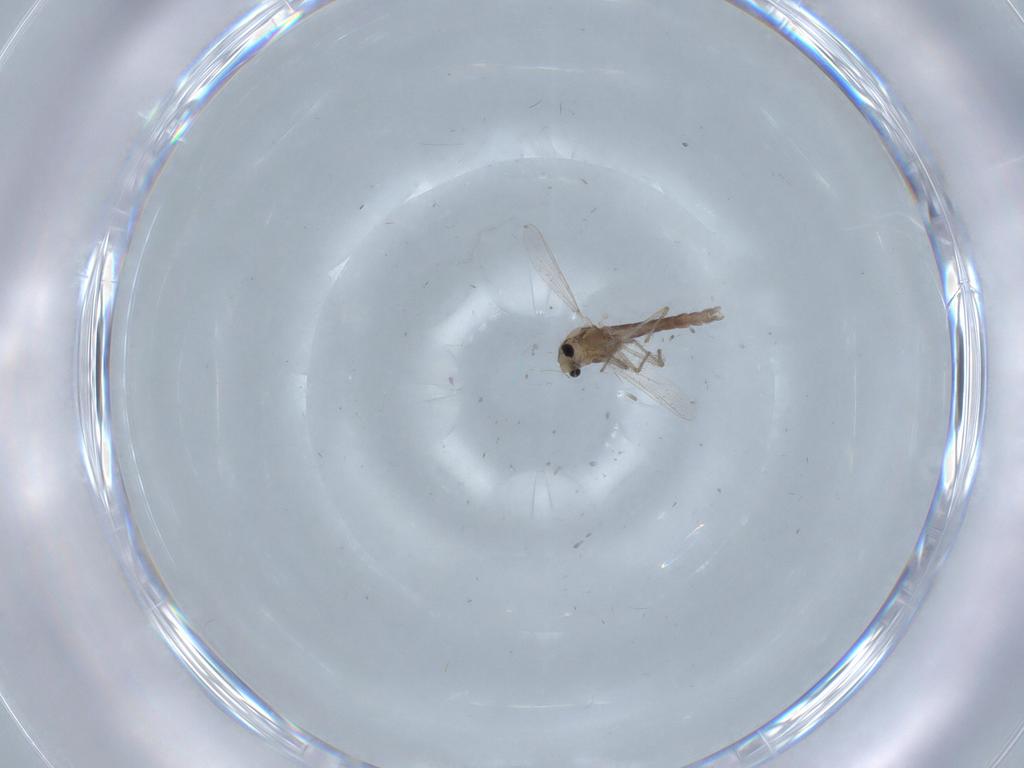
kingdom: Animalia
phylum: Arthropoda
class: Insecta
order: Diptera
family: Chironomidae
